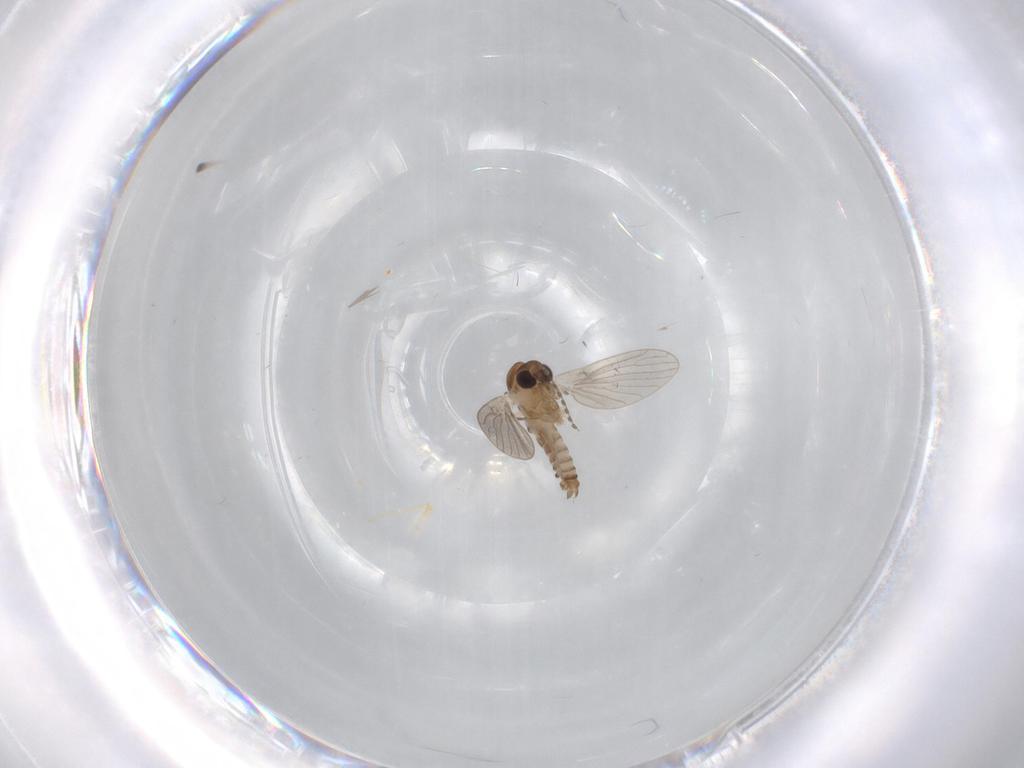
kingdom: Animalia
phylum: Arthropoda
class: Insecta
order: Diptera
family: Psychodidae
